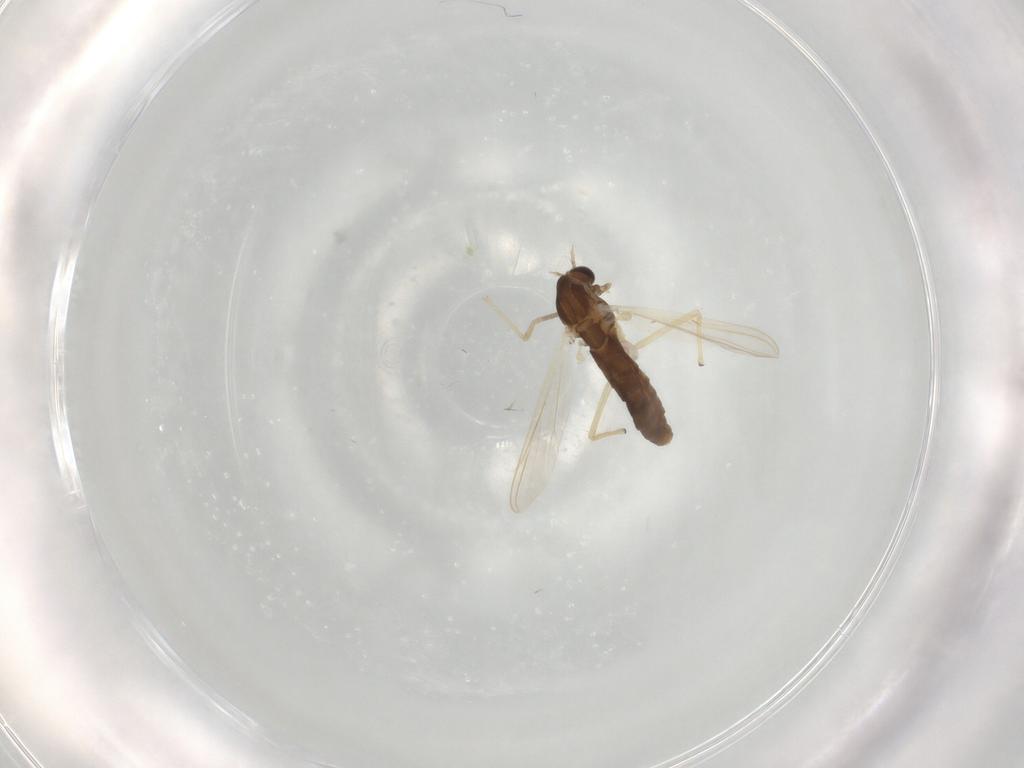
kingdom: Animalia
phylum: Arthropoda
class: Insecta
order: Diptera
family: Chironomidae
